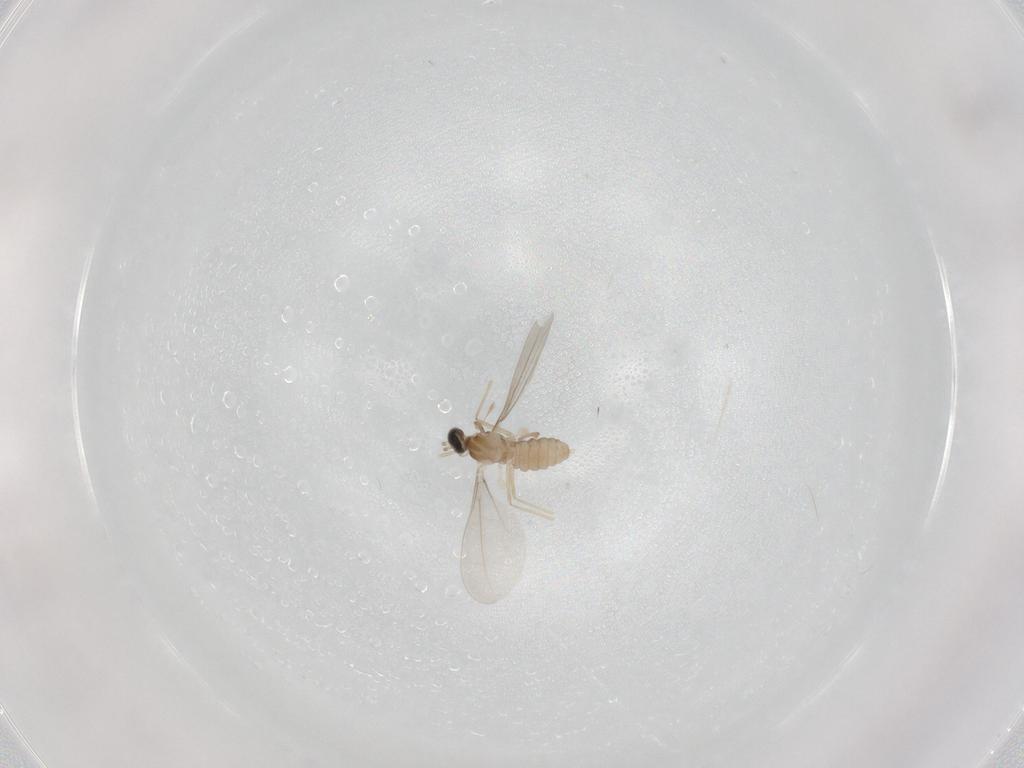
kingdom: Animalia
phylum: Arthropoda
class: Insecta
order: Diptera
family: Cecidomyiidae
